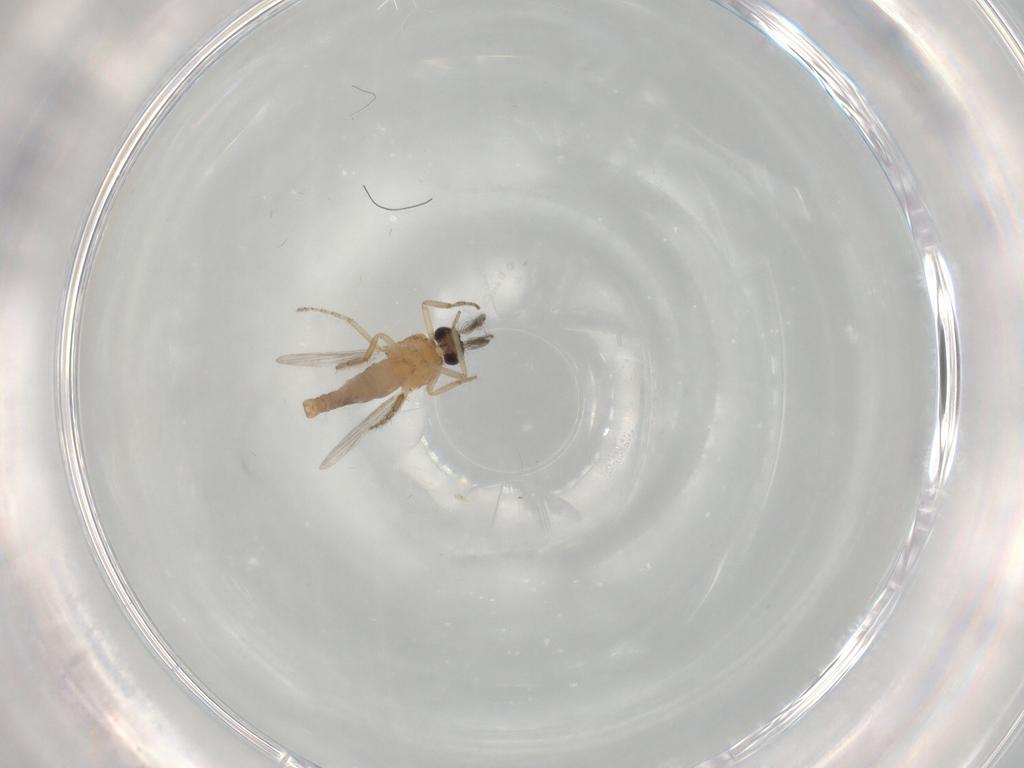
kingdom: Animalia
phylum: Arthropoda
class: Insecta
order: Diptera
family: Ceratopogonidae
